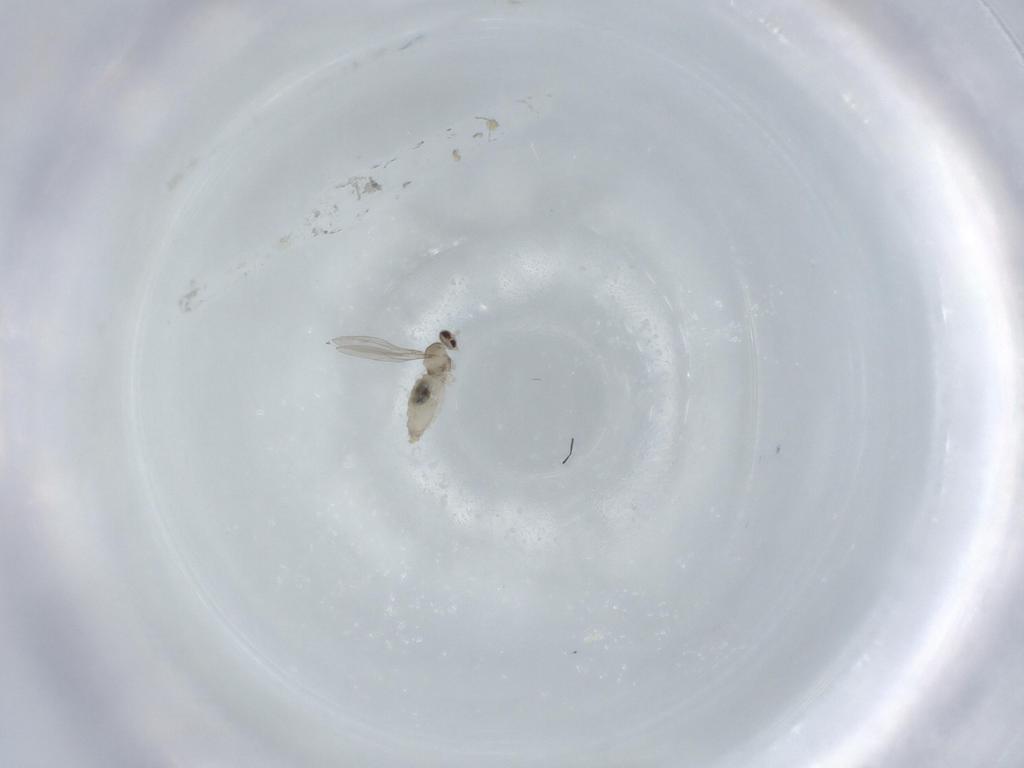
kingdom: Animalia
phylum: Arthropoda
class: Insecta
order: Diptera
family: Cecidomyiidae
